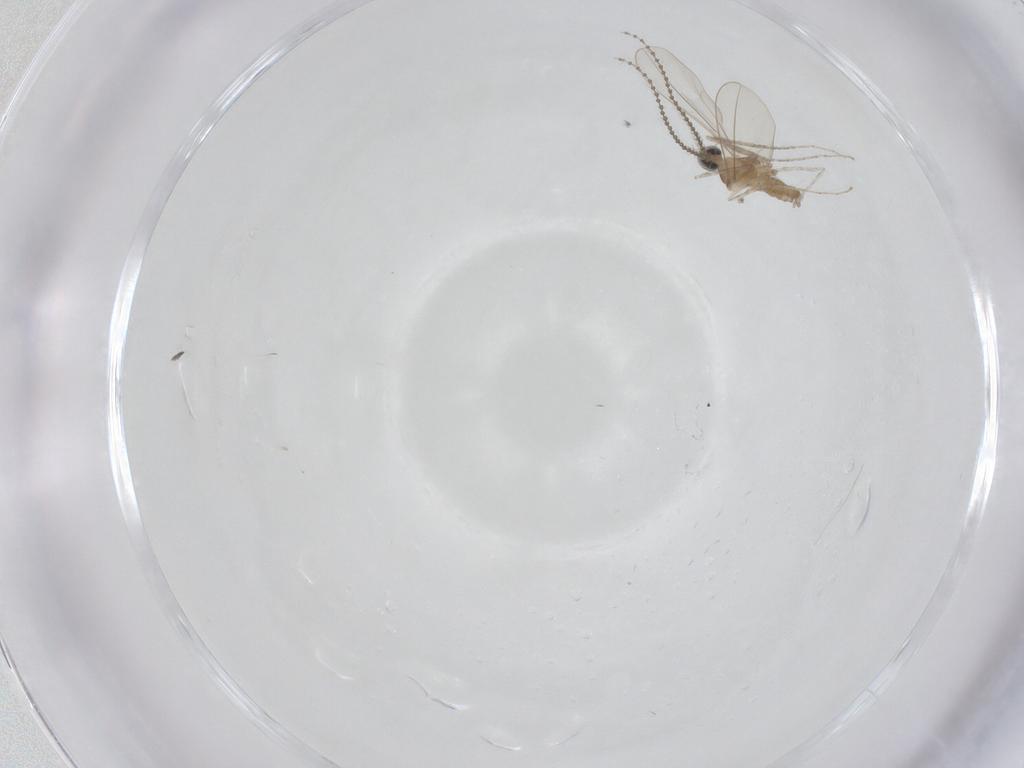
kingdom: Animalia
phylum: Arthropoda
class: Insecta
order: Diptera
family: Cecidomyiidae
